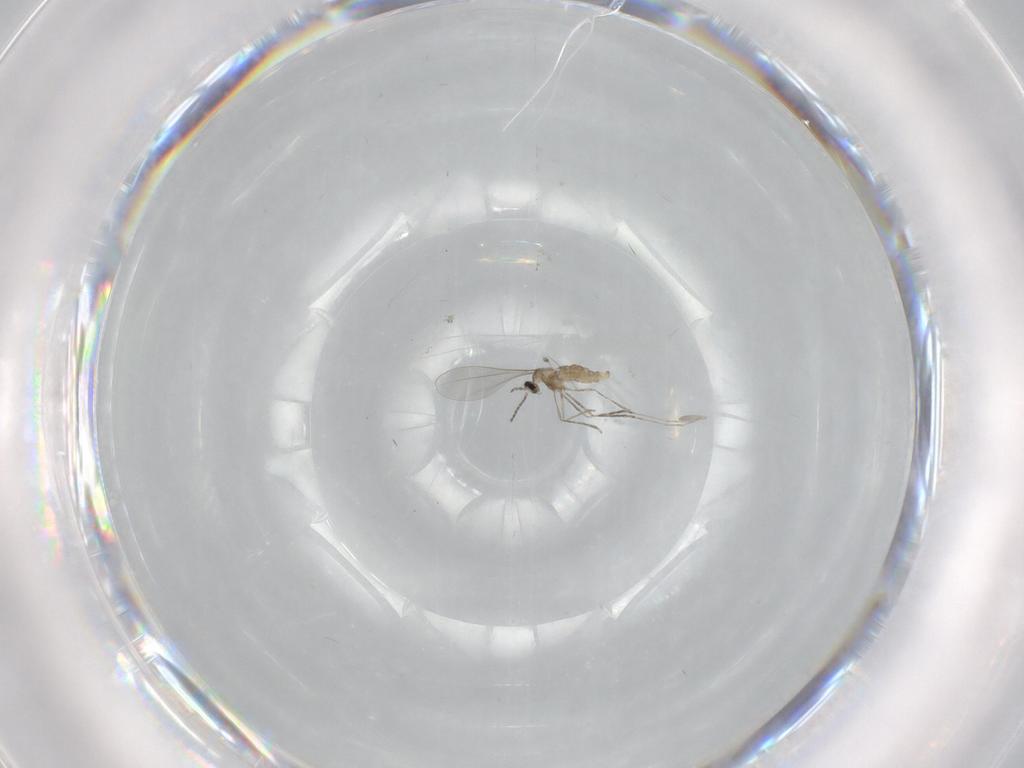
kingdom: Animalia
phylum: Arthropoda
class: Insecta
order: Diptera
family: Cecidomyiidae
